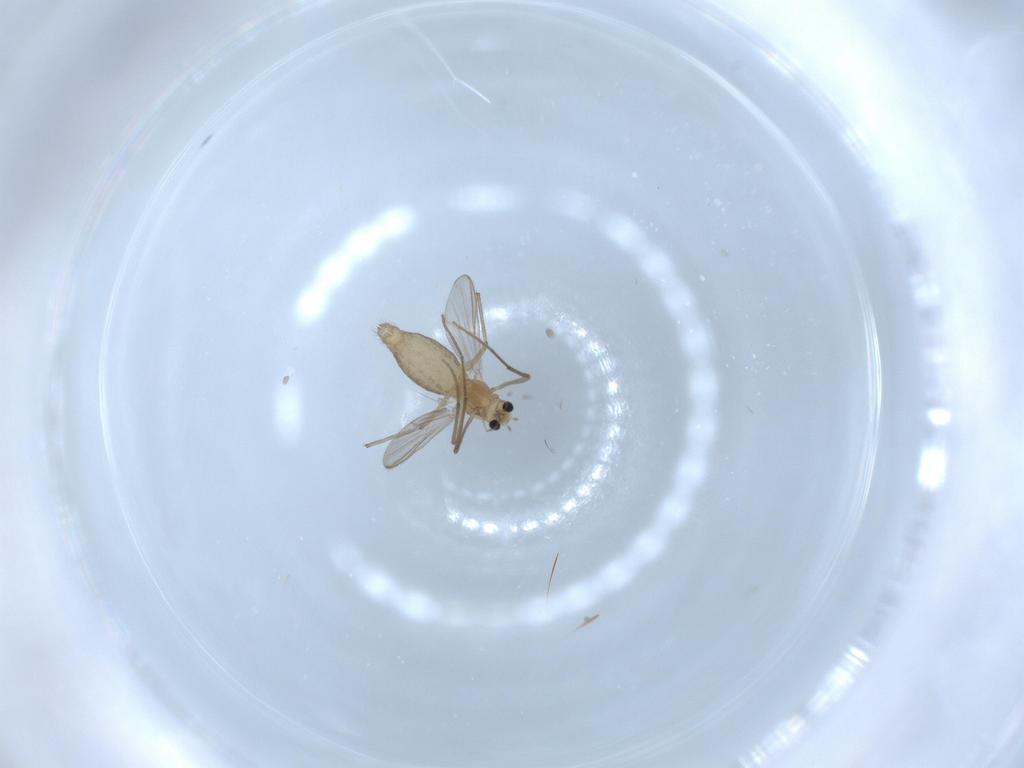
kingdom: Animalia
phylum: Arthropoda
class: Insecta
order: Diptera
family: Chironomidae
